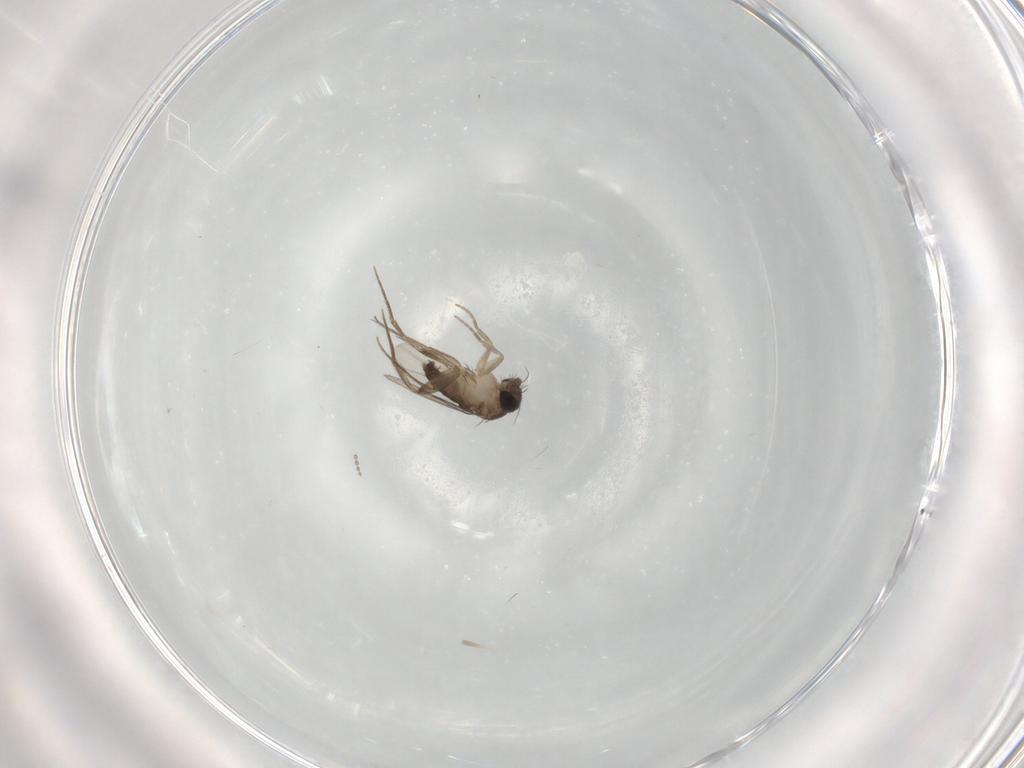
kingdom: Animalia
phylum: Arthropoda
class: Insecta
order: Diptera
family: Phoridae
